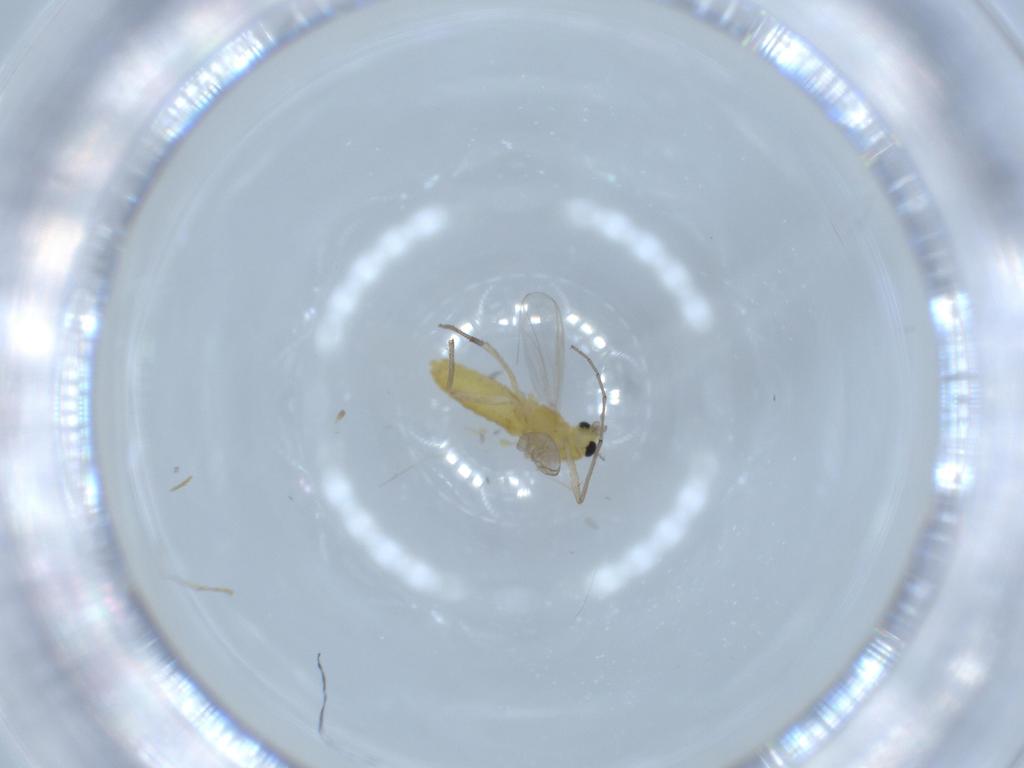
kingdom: Animalia
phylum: Arthropoda
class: Insecta
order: Diptera
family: Chironomidae
